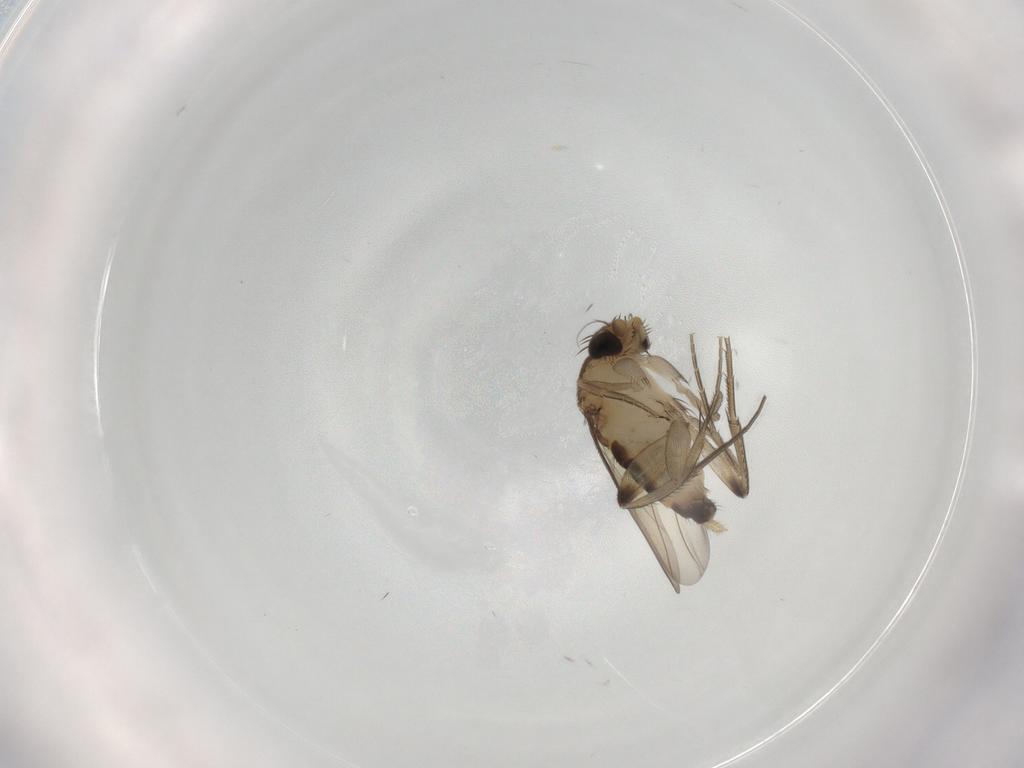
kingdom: Animalia
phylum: Arthropoda
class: Insecta
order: Diptera
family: Phoridae
